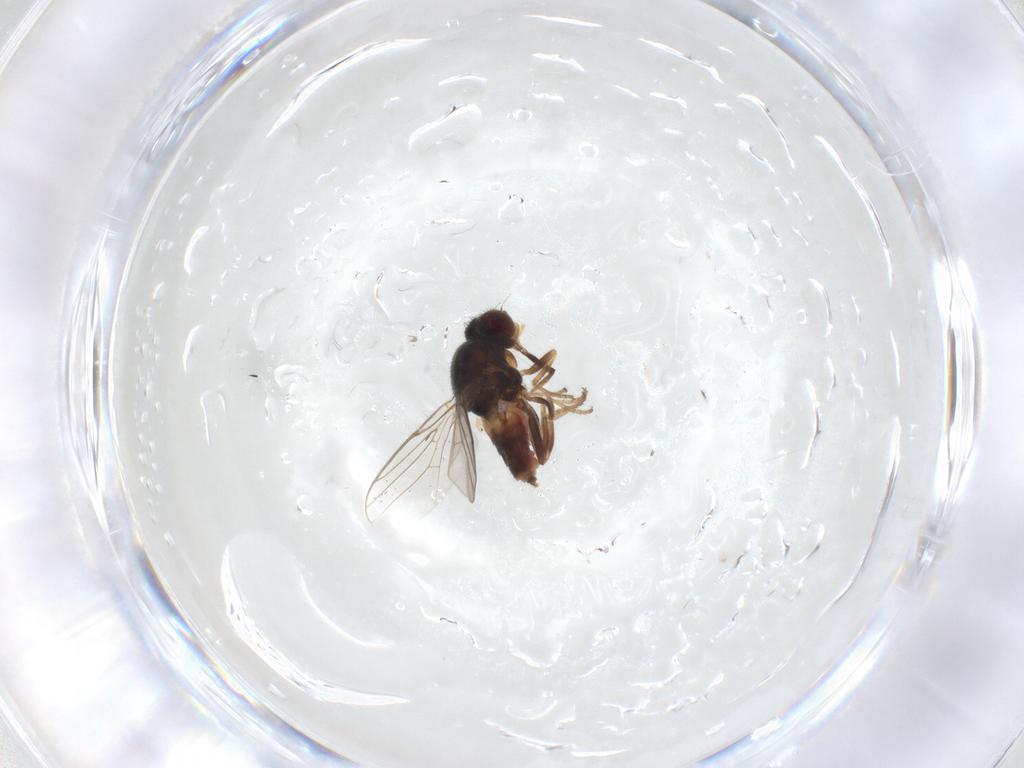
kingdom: Animalia
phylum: Arthropoda
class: Insecta
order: Diptera
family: Chloropidae
